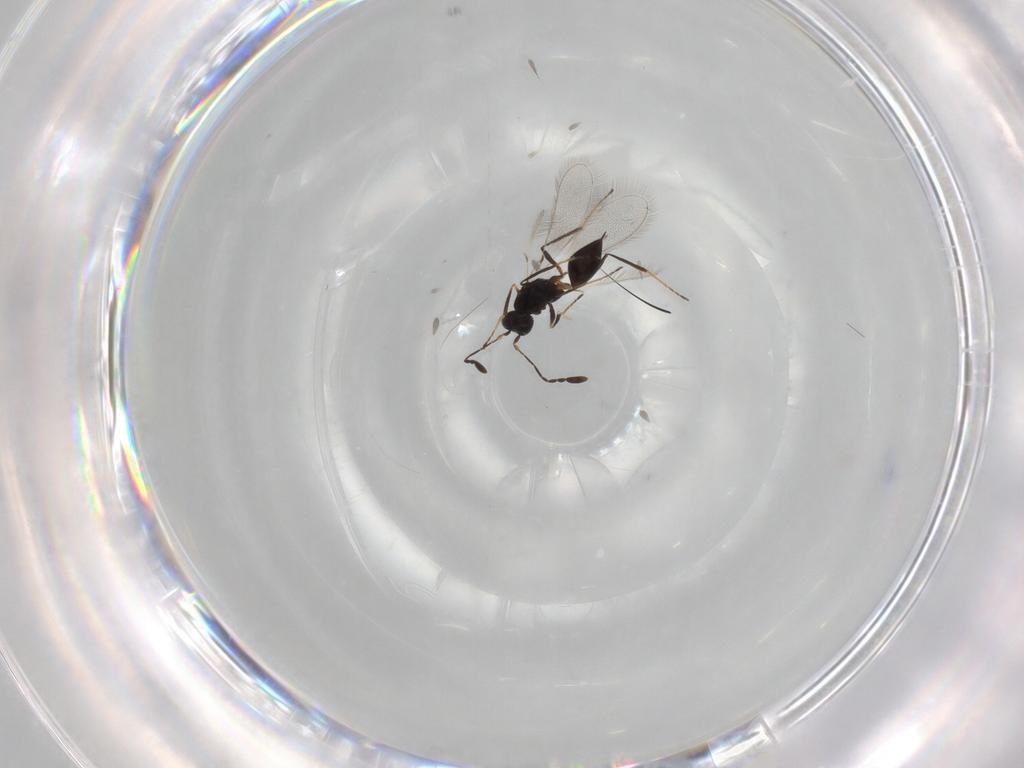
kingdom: Animalia
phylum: Arthropoda
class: Insecta
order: Hymenoptera
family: Mymaridae
